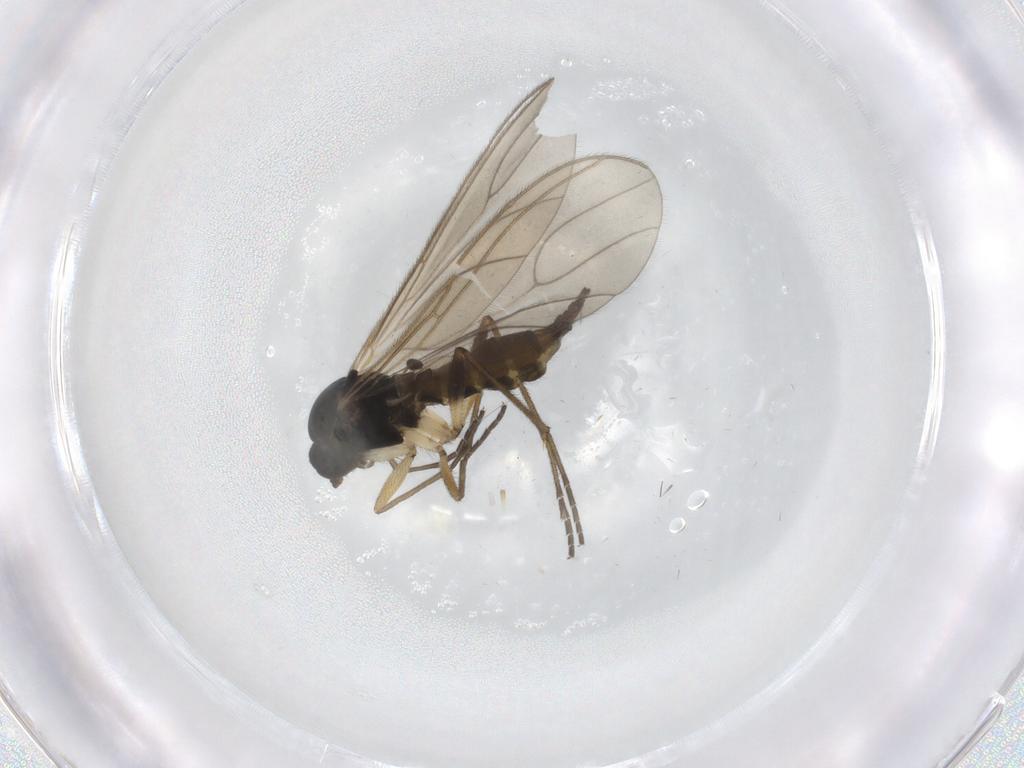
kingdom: Animalia
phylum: Arthropoda
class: Insecta
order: Diptera
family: Sciaridae
